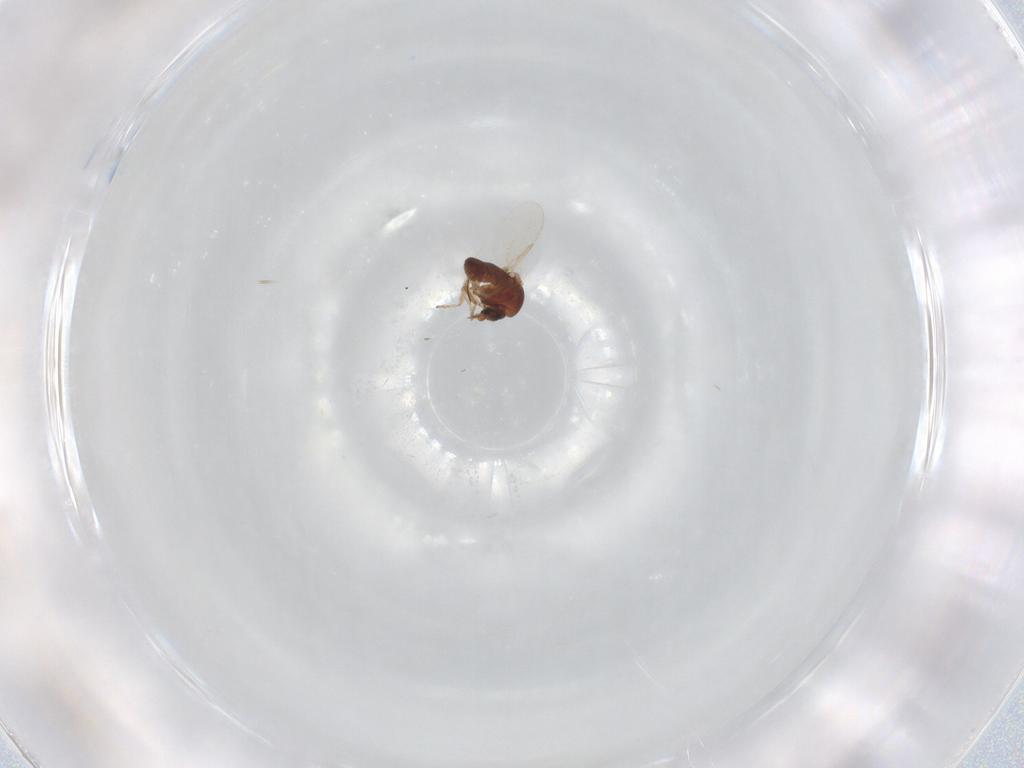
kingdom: Animalia
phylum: Arthropoda
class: Insecta
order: Diptera
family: Ceratopogonidae
